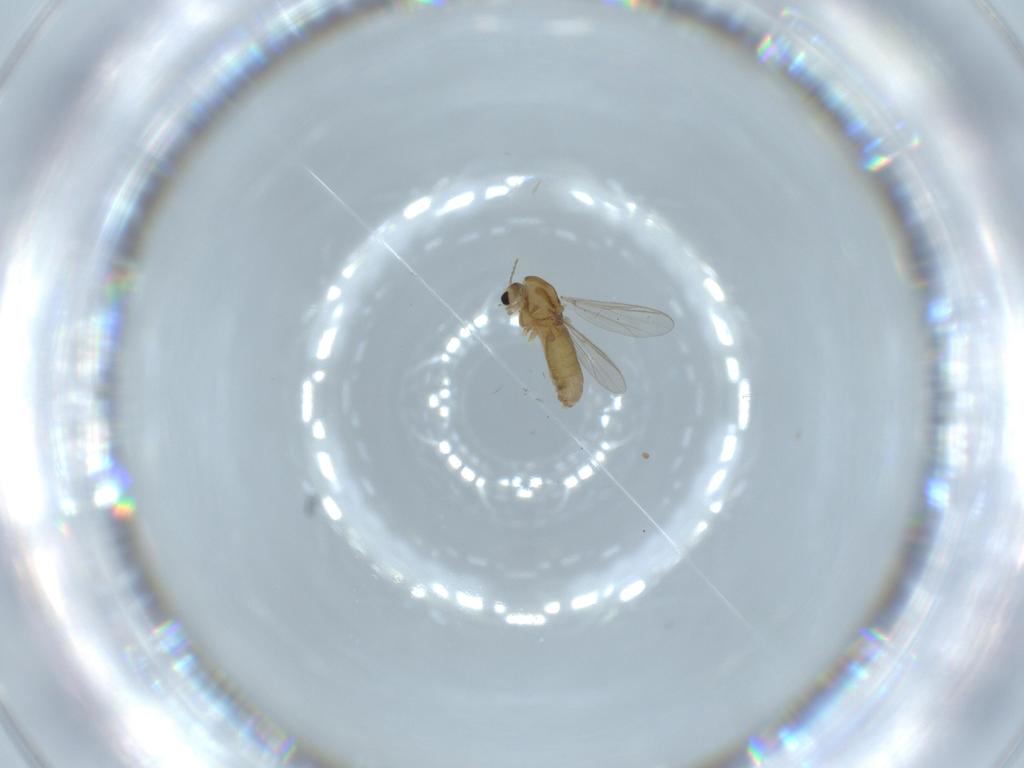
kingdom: Animalia
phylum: Arthropoda
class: Insecta
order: Diptera
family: Chironomidae
